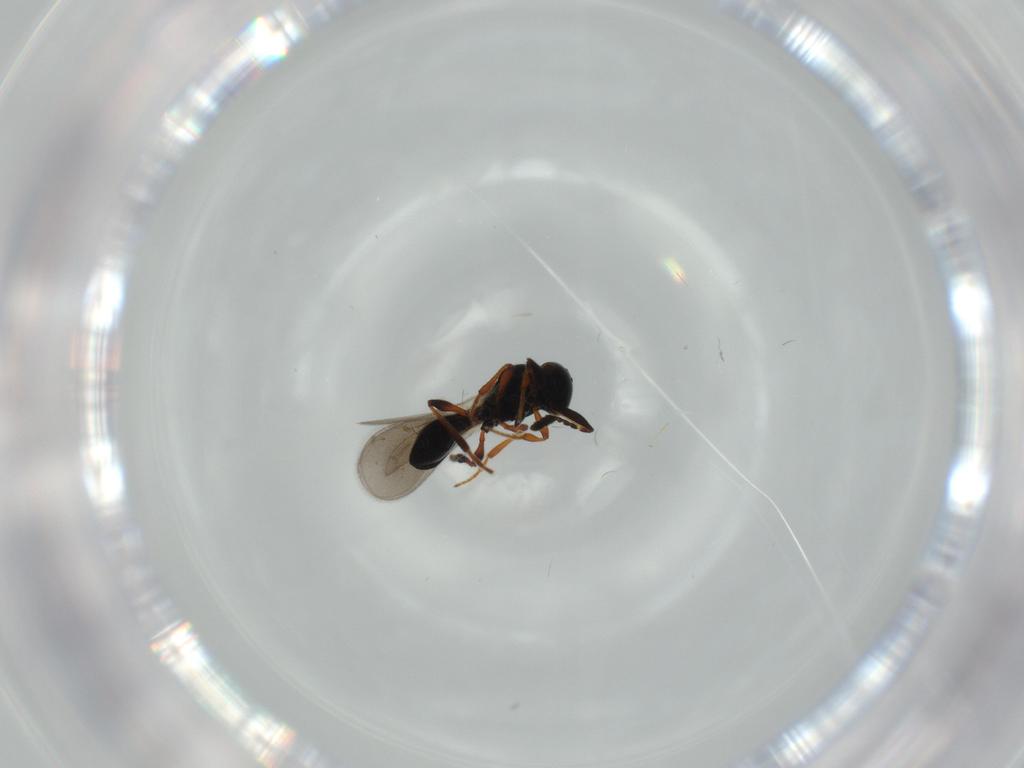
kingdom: Animalia
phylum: Arthropoda
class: Insecta
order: Hymenoptera
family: Platygastridae
